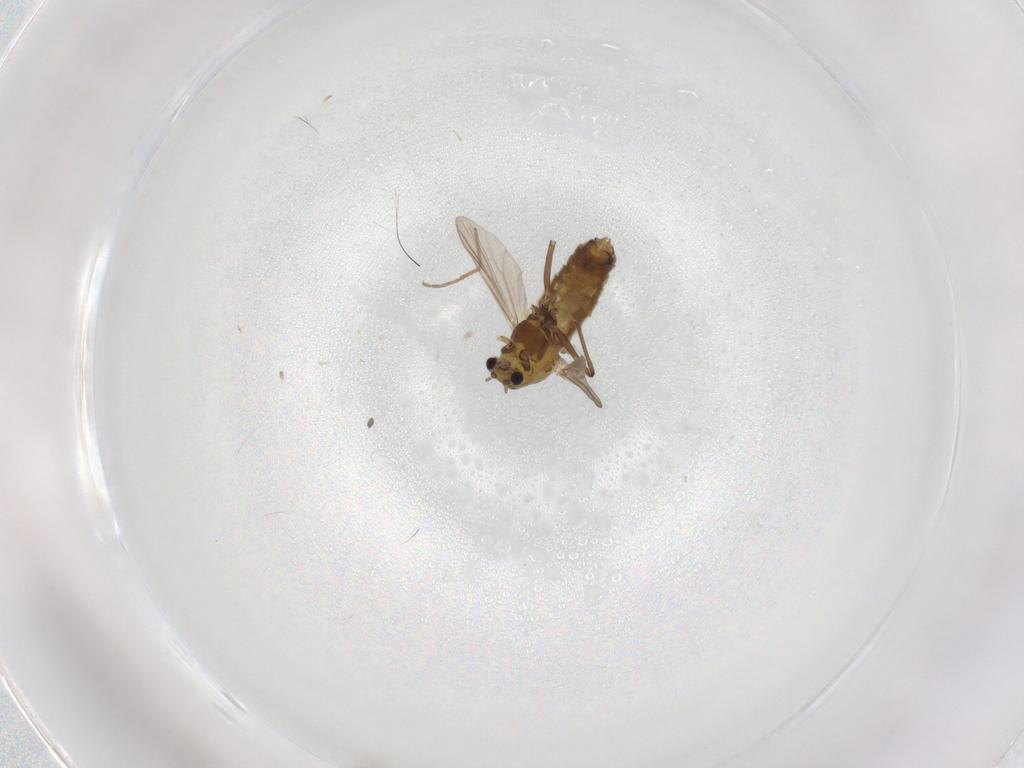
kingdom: Animalia
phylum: Arthropoda
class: Insecta
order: Diptera
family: Chironomidae
